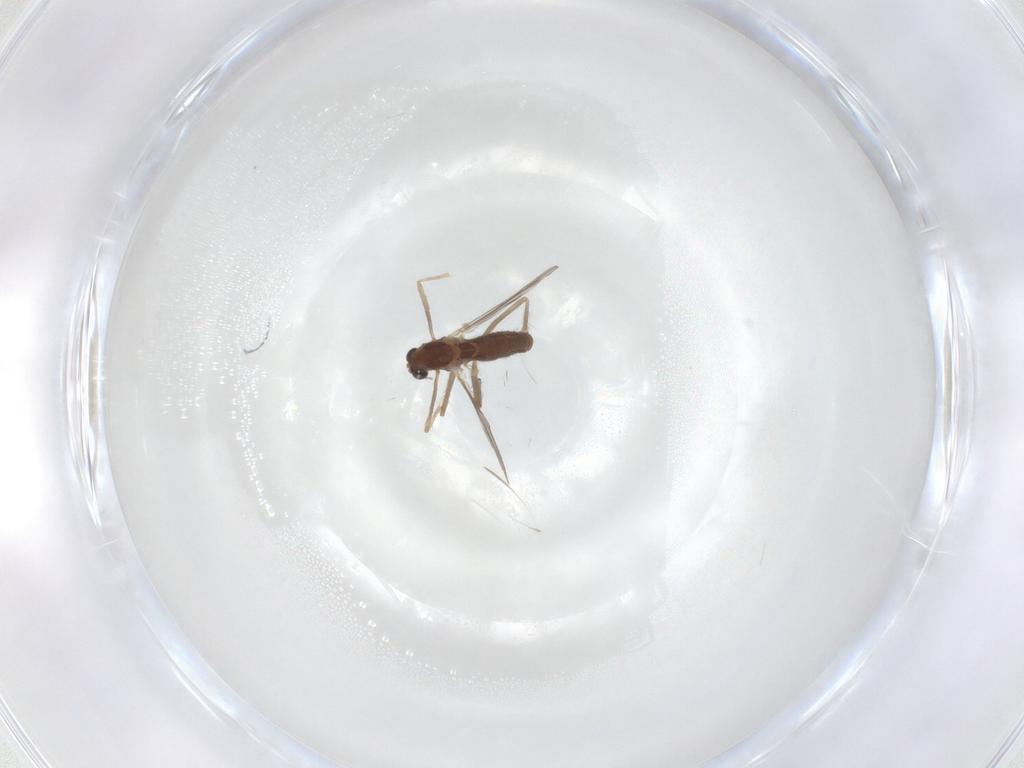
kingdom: Animalia
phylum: Arthropoda
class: Insecta
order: Diptera
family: Chironomidae
